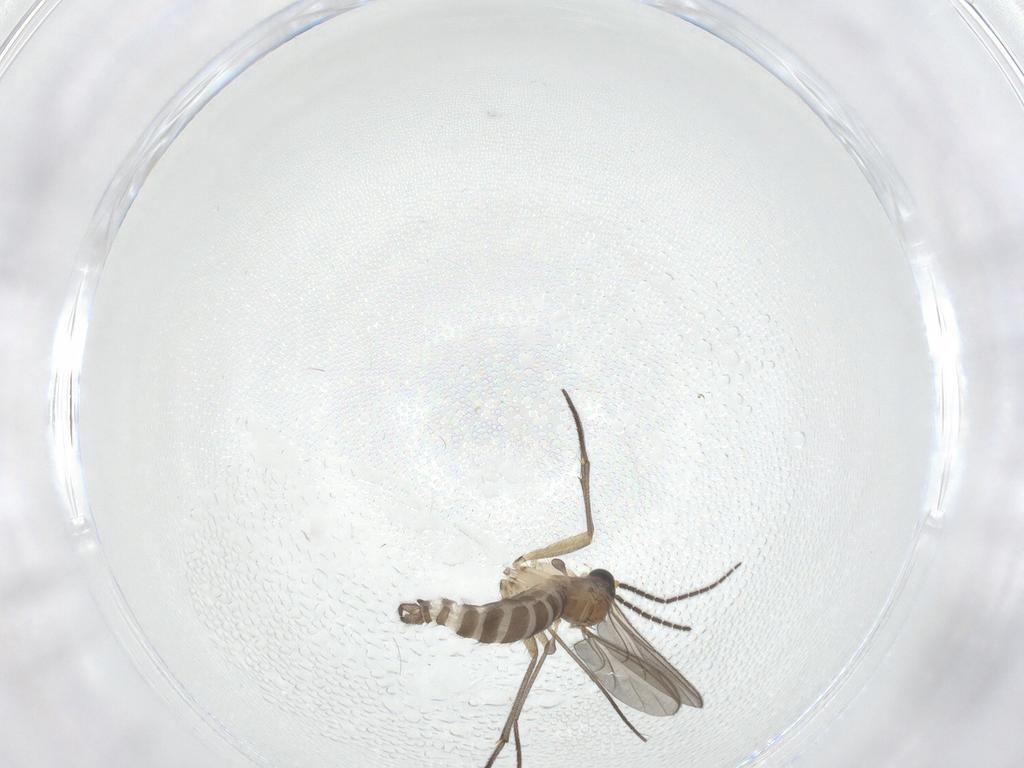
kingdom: Animalia
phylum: Arthropoda
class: Insecta
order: Diptera
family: Sciaridae
